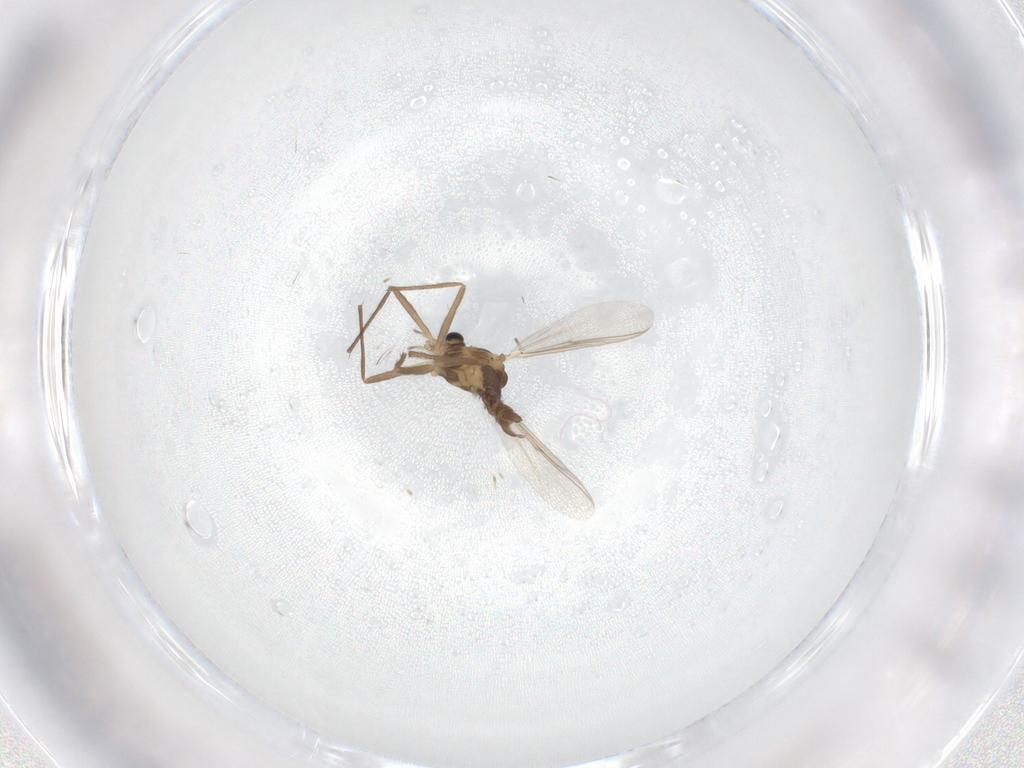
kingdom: Animalia
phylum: Arthropoda
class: Insecta
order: Diptera
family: Chironomidae
